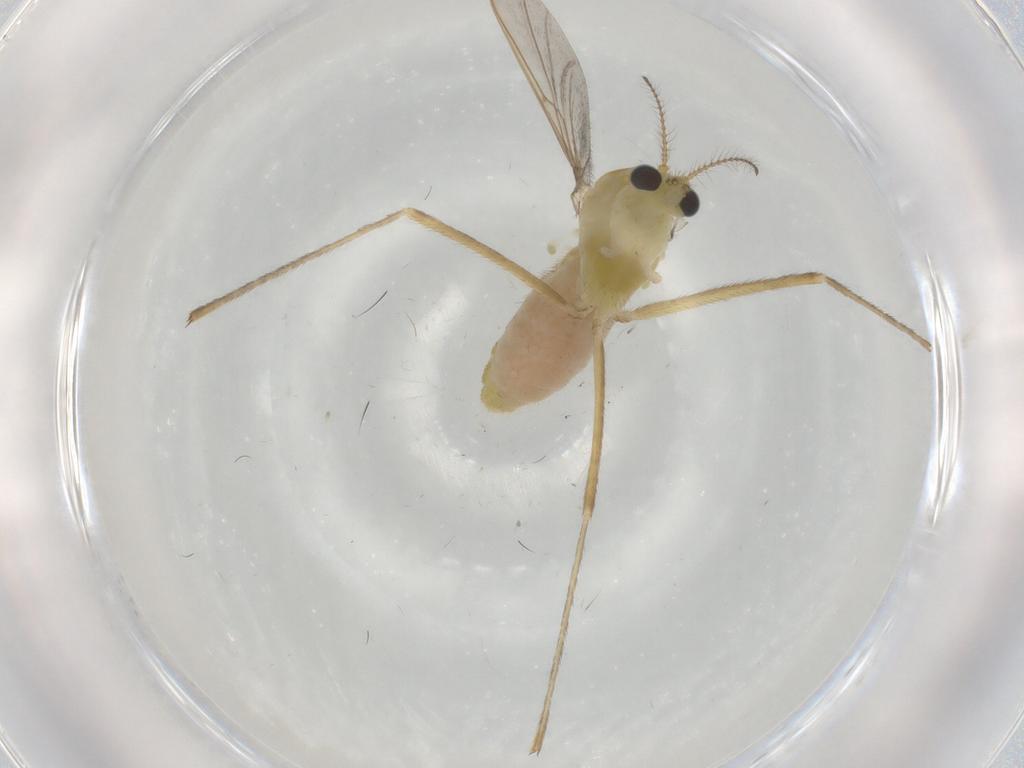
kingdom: Animalia
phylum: Arthropoda
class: Insecta
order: Diptera
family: Chironomidae
